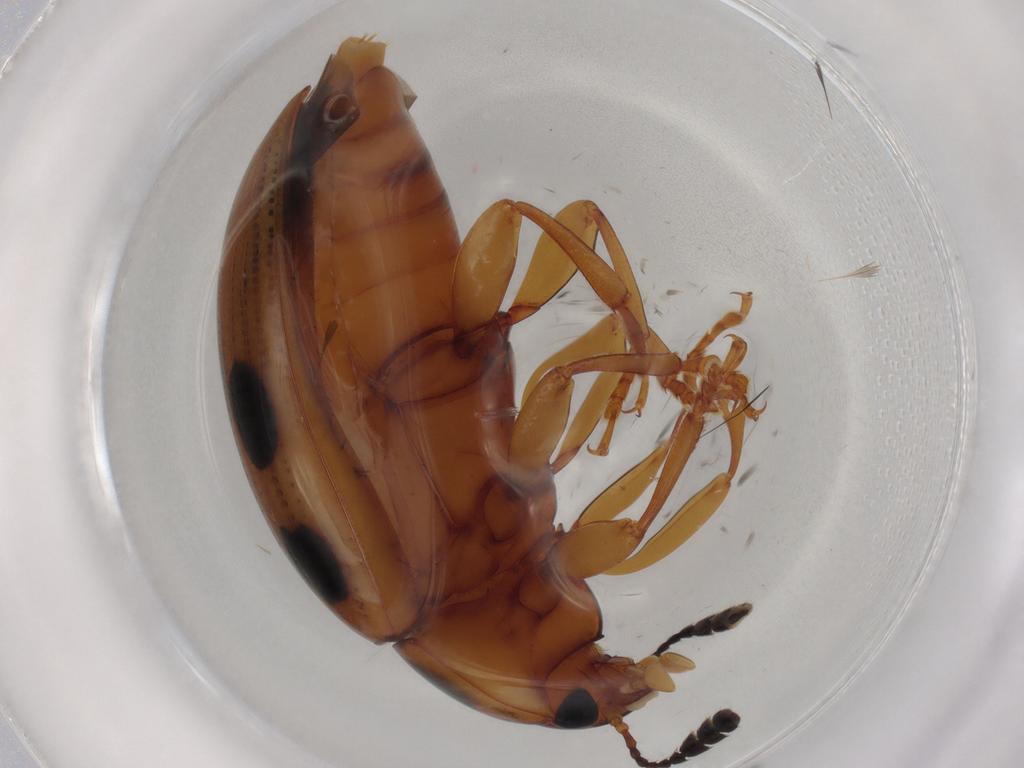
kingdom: Animalia
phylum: Arthropoda
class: Insecta
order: Coleoptera
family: Erotylidae
